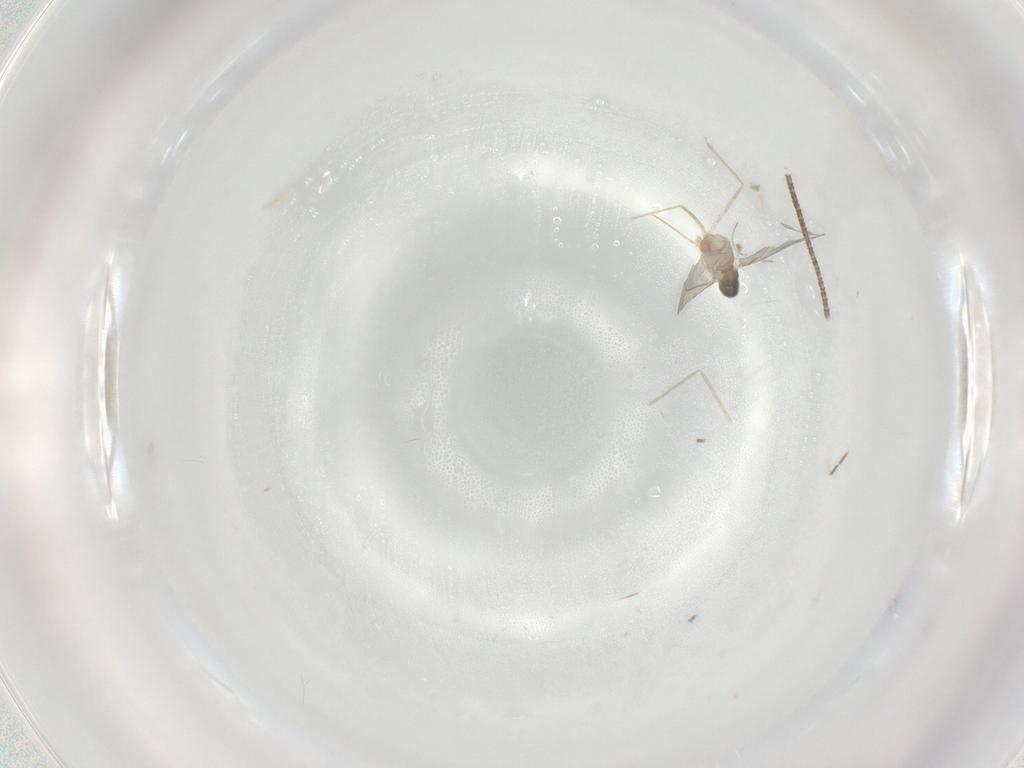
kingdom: Animalia
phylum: Arthropoda
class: Insecta
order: Diptera
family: Cecidomyiidae
